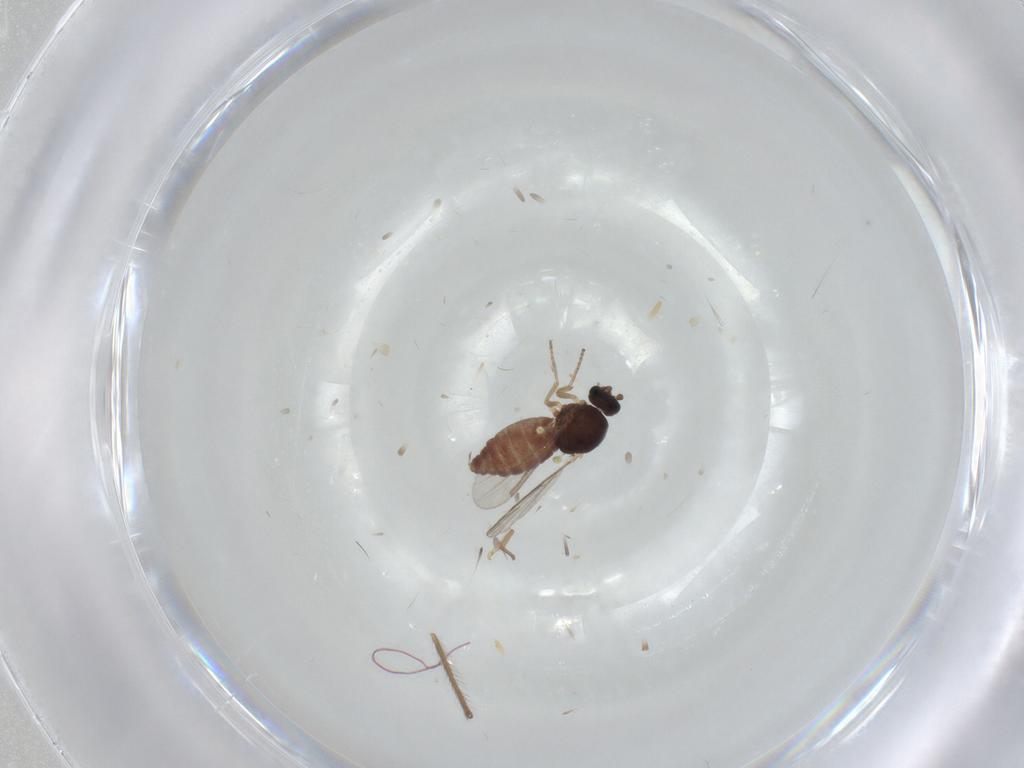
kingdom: Animalia
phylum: Arthropoda
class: Insecta
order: Diptera
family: Ceratopogonidae
